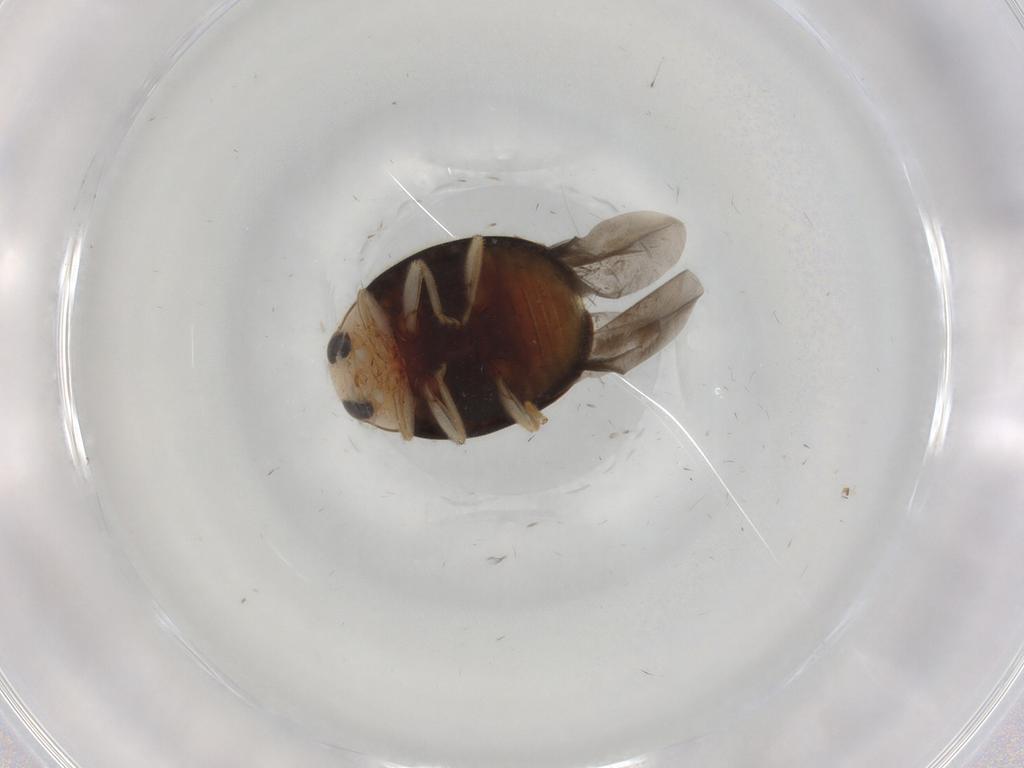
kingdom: Animalia
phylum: Arthropoda
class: Insecta
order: Coleoptera
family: Coccinellidae
